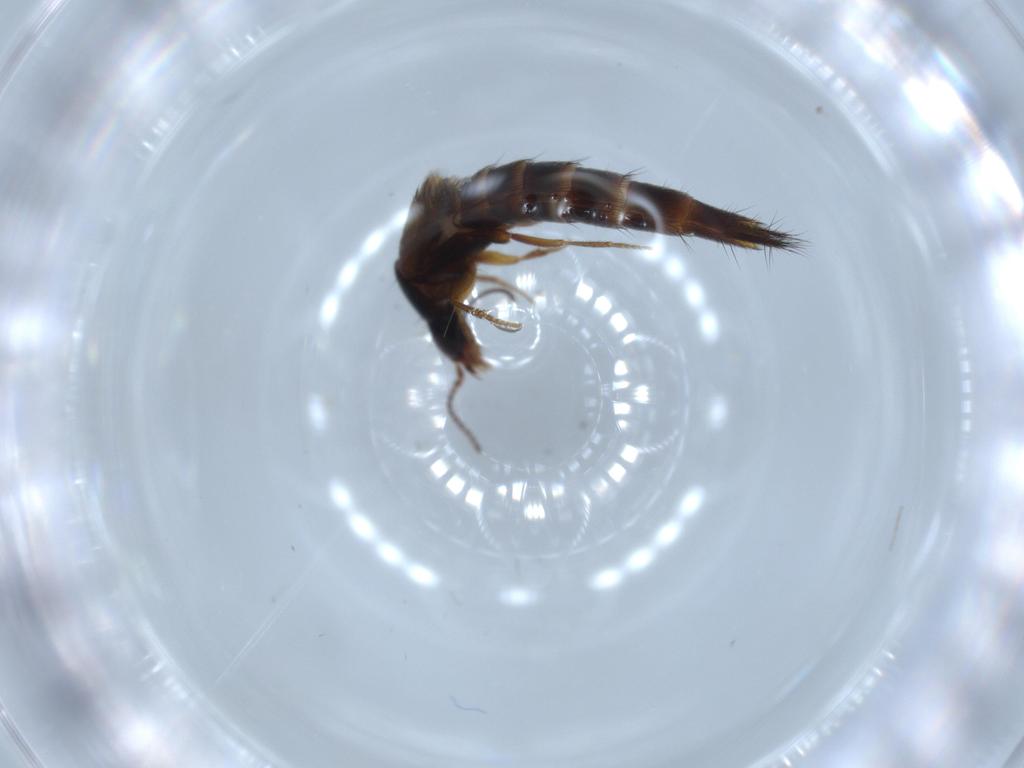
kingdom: Animalia
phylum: Arthropoda
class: Insecta
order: Coleoptera
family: Staphylinidae
